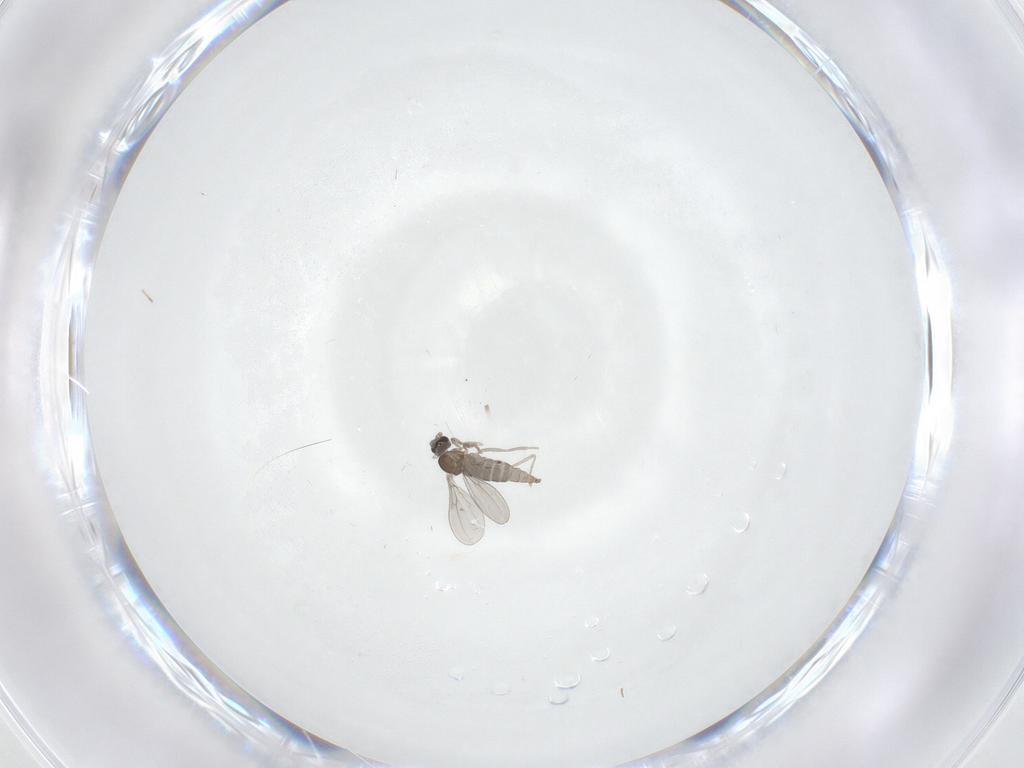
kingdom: Animalia
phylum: Arthropoda
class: Insecta
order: Diptera
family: Cecidomyiidae
